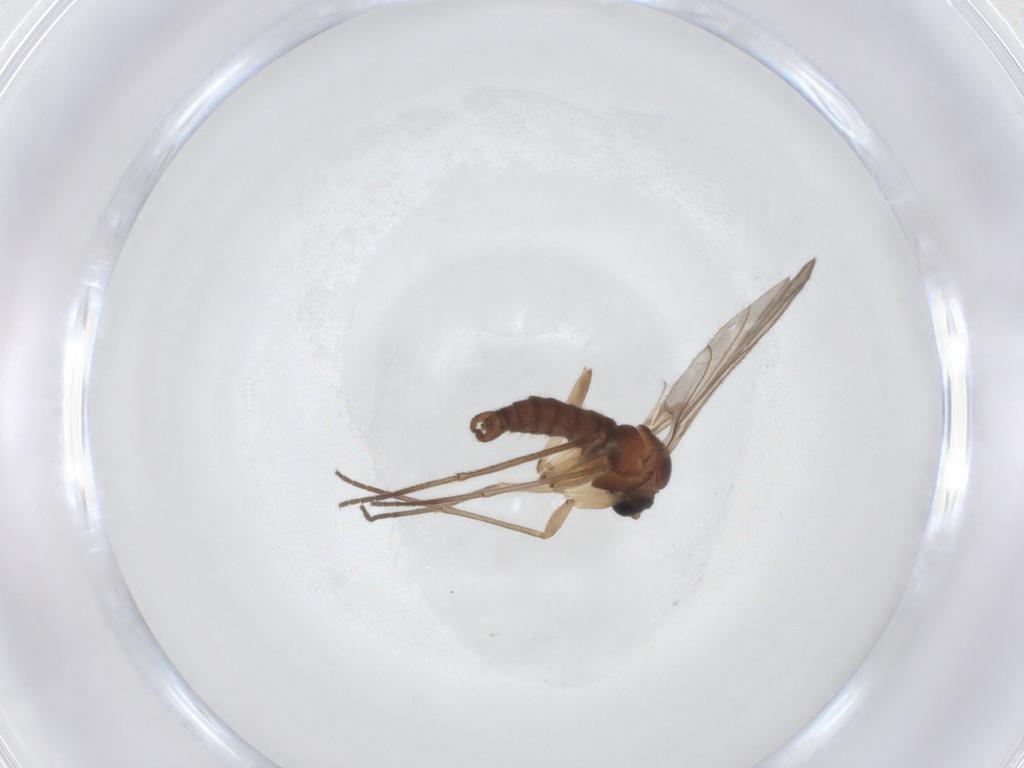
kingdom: Animalia
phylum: Arthropoda
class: Insecta
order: Diptera
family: Sciaridae
